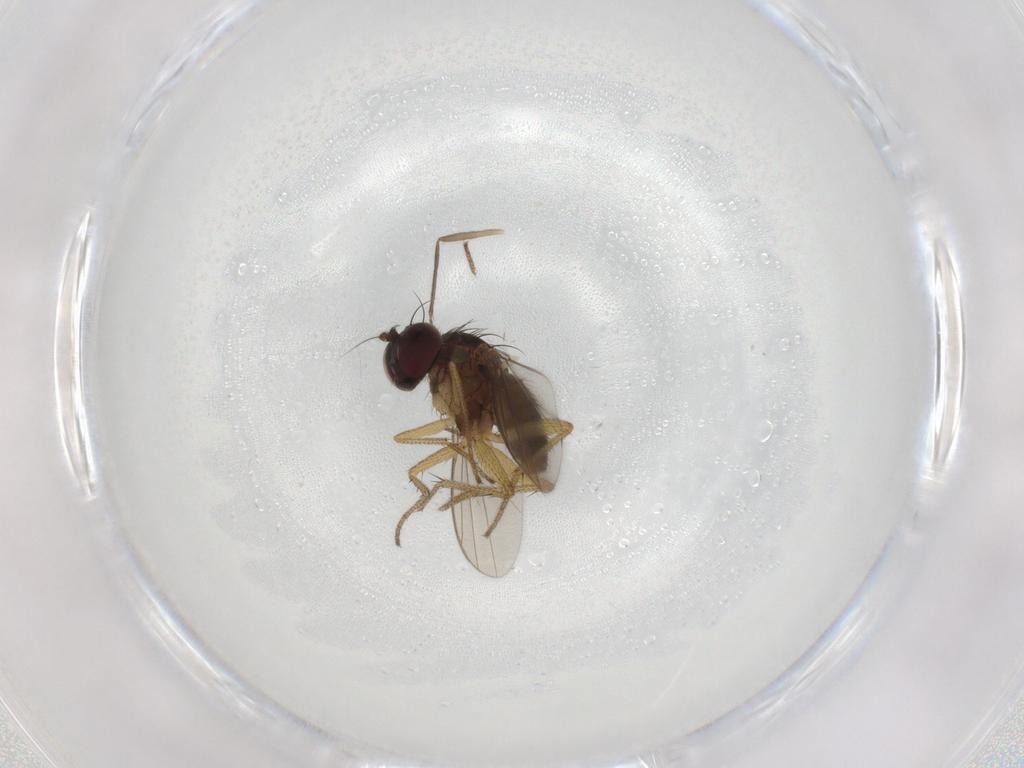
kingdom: Animalia
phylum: Arthropoda
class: Insecta
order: Diptera
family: Chironomidae
